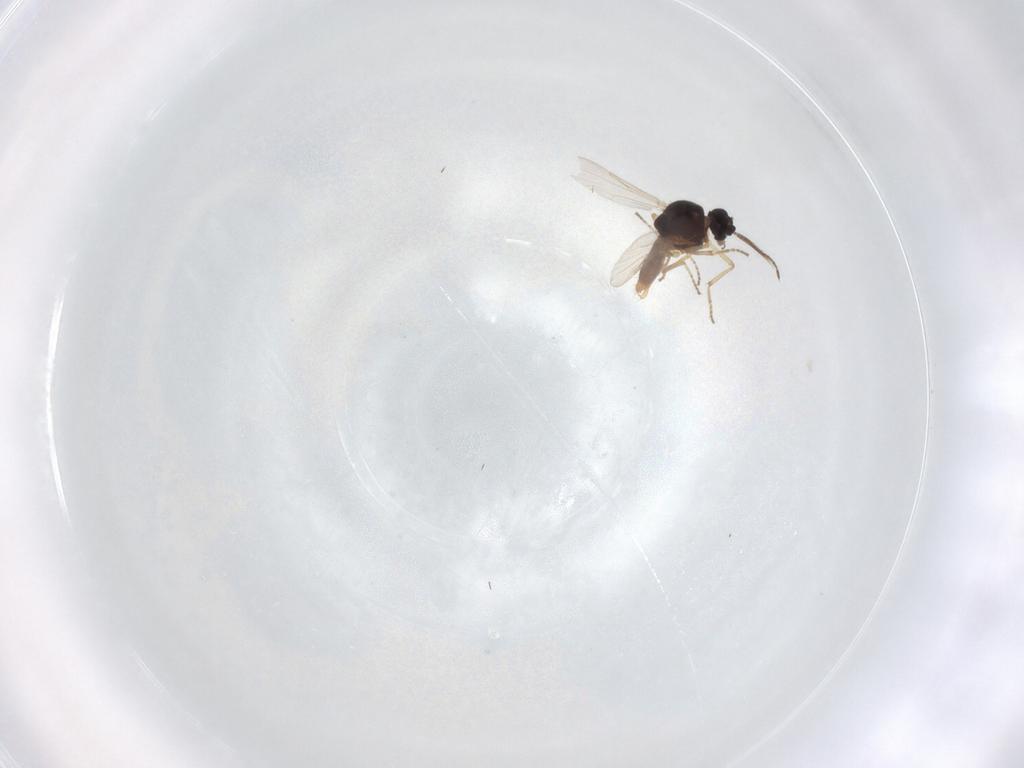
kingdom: Animalia
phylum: Arthropoda
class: Insecta
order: Diptera
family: Ceratopogonidae
